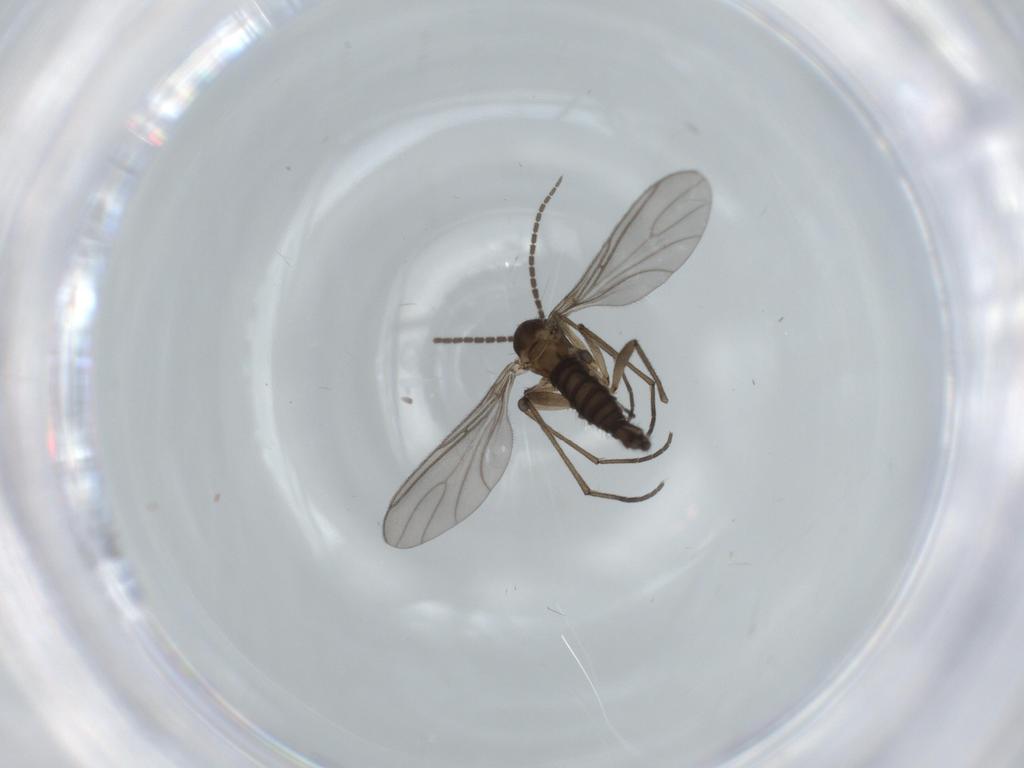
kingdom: Animalia
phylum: Arthropoda
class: Insecta
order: Diptera
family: Sciaridae
